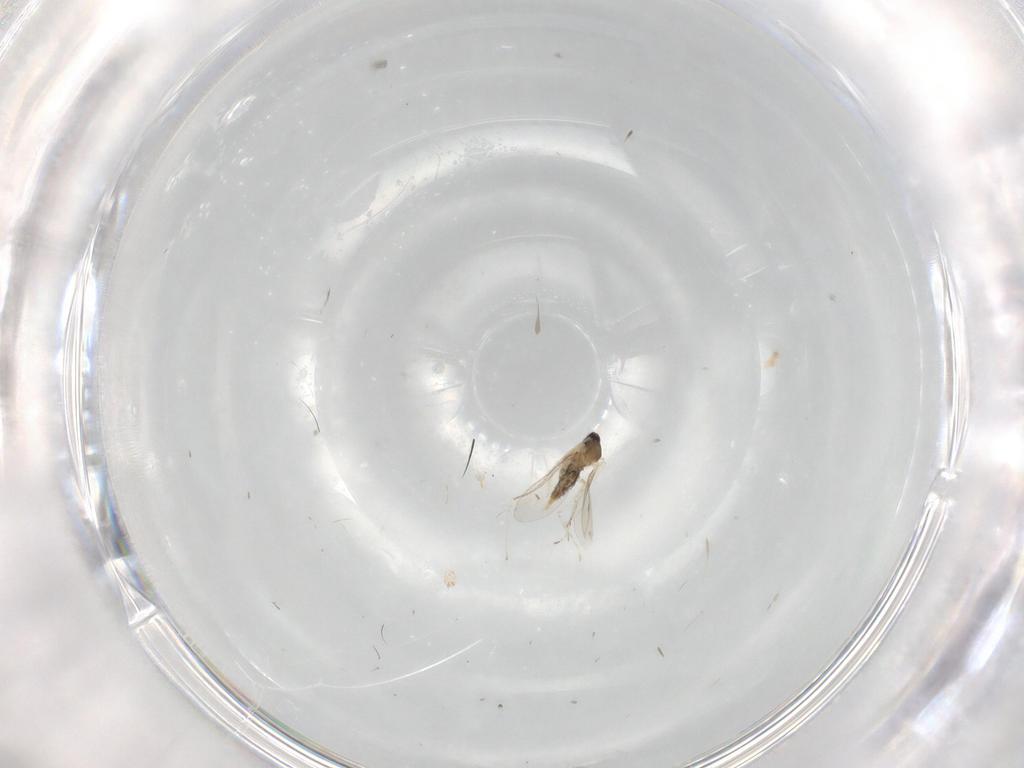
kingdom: Animalia
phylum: Arthropoda
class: Insecta
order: Diptera
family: Cecidomyiidae
